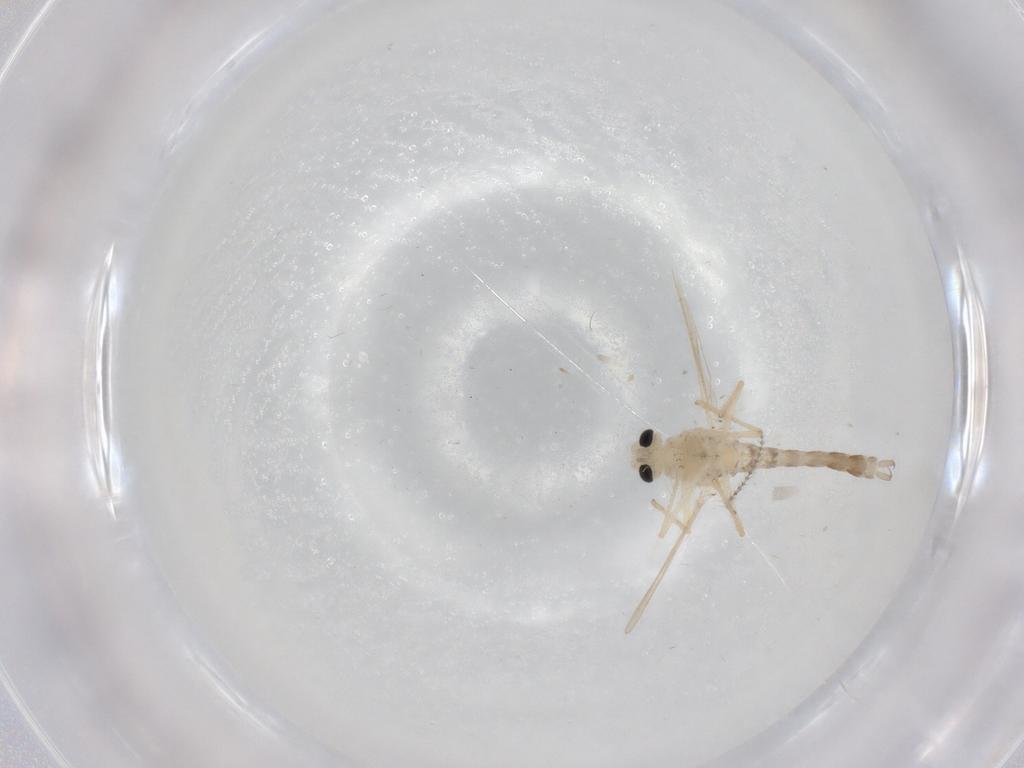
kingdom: Animalia
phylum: Arthropoda
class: Insecta
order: Diptera
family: Chironomidae
